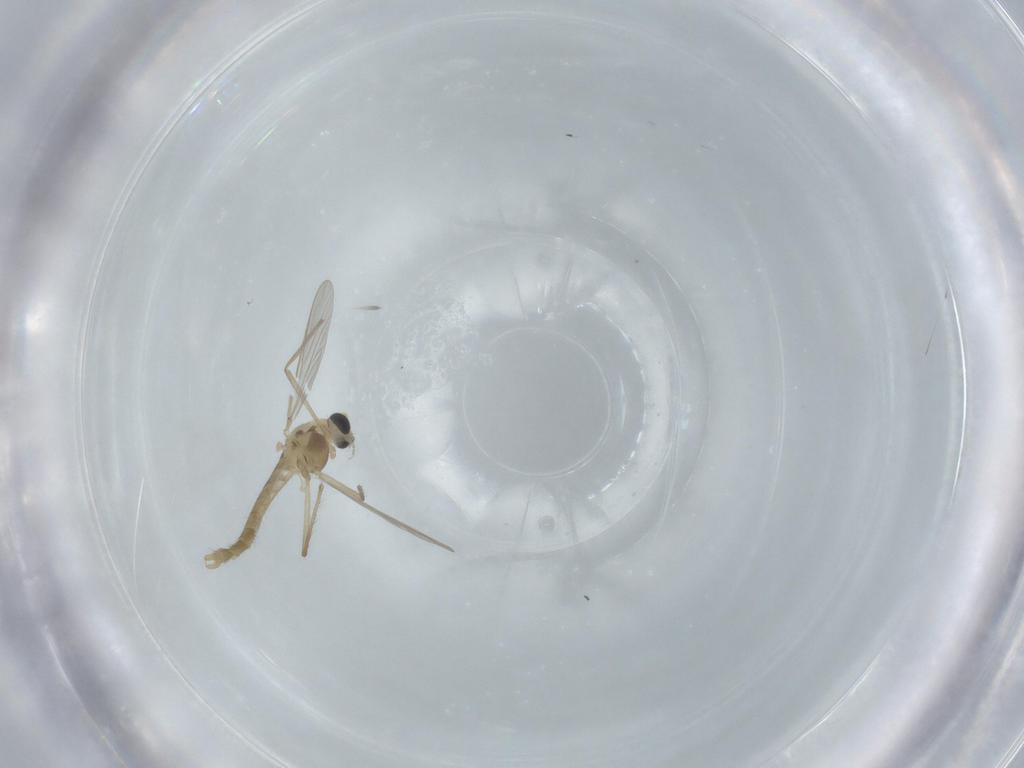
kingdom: Animalia
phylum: Arthropoda
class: Insecta
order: Diptera
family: Chironomidae
